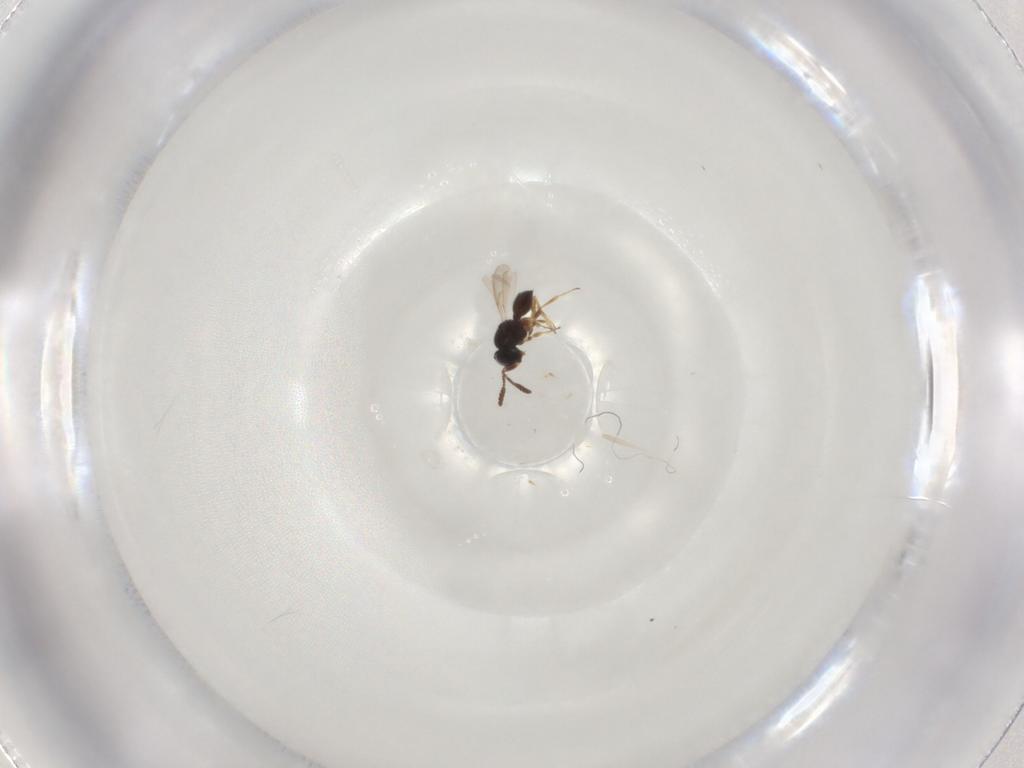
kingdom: Animalia
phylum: Arthropoda
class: Insecta
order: Hymenoptera
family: Scelionidae
